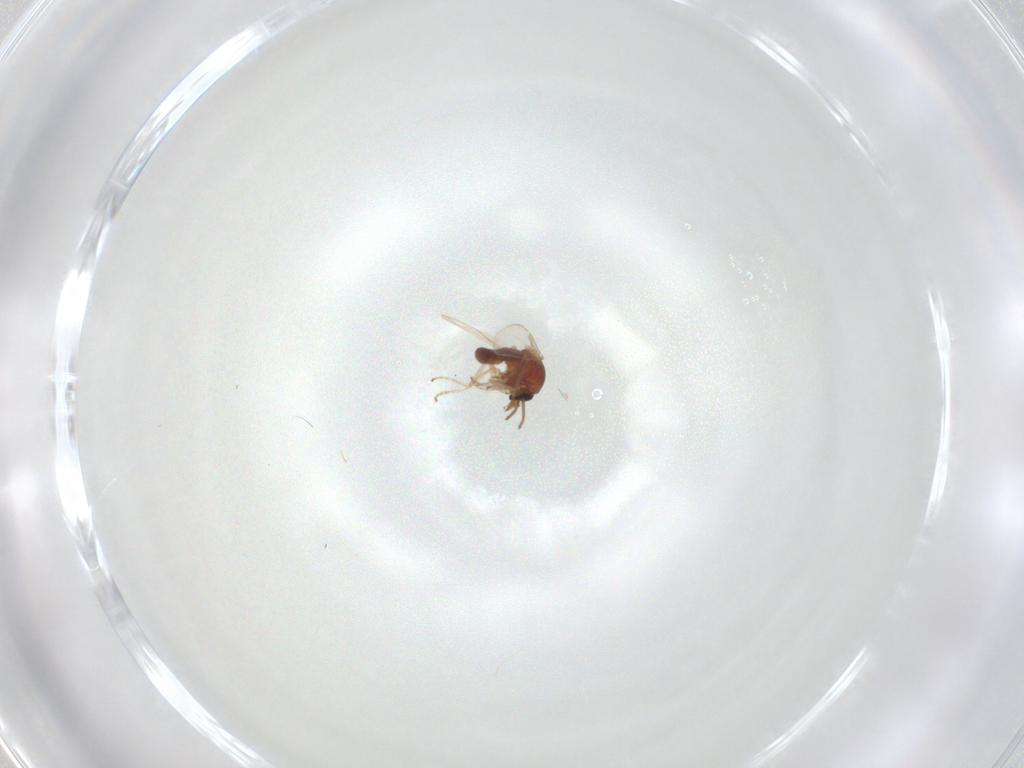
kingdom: Animalia
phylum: Arthropoda
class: Insecta
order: Diptera
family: Ceratopogonidae
